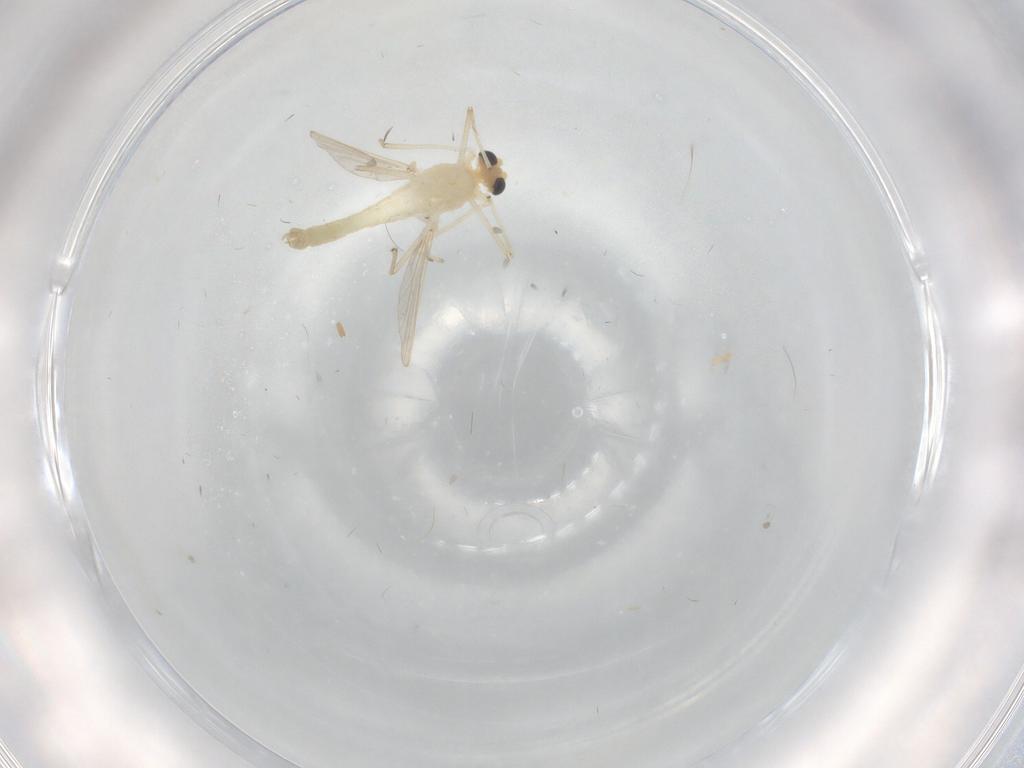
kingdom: Animalia
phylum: Arthropoda
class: Insecta
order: Diptera
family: Chironomidae
